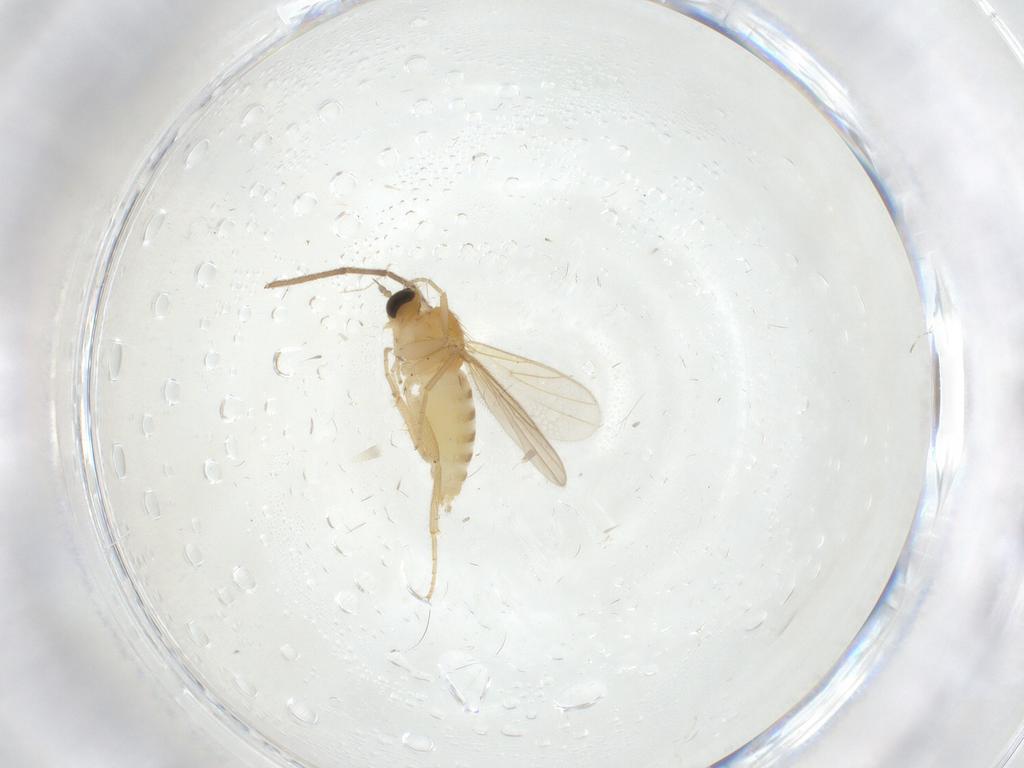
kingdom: Animalia
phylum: Arthropoda
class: Insecta
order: Diptera
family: Hybotidae
